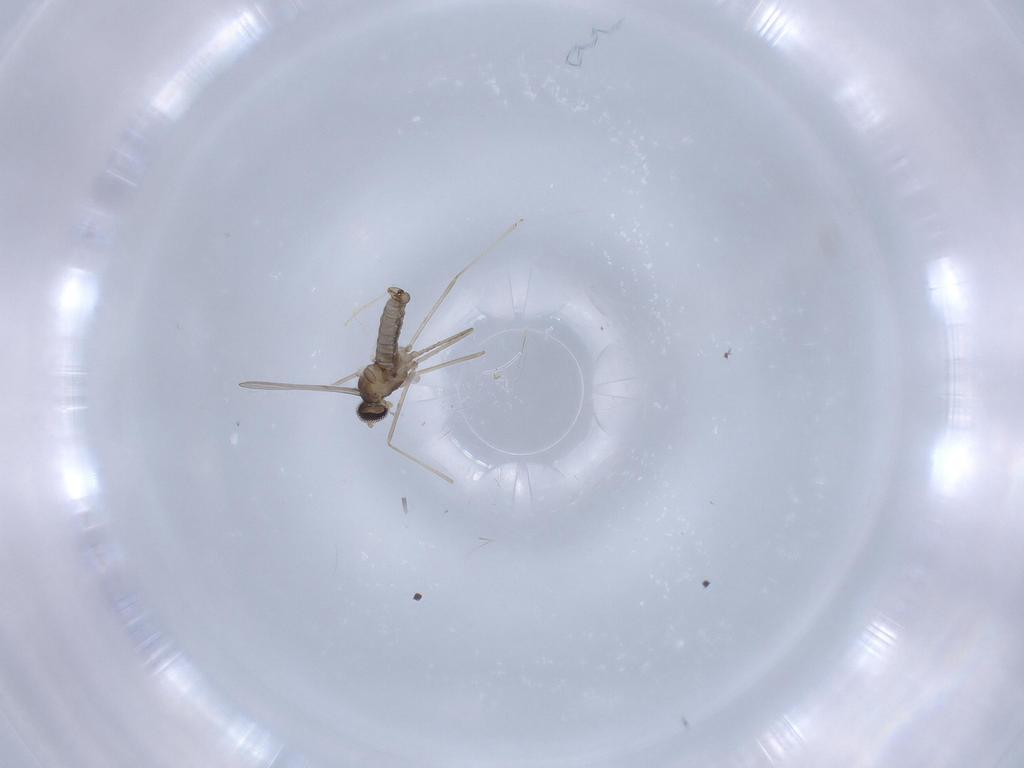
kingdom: Animalia
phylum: Arthropoda
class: Insecta
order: Diptera
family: Cecidomyiidae
